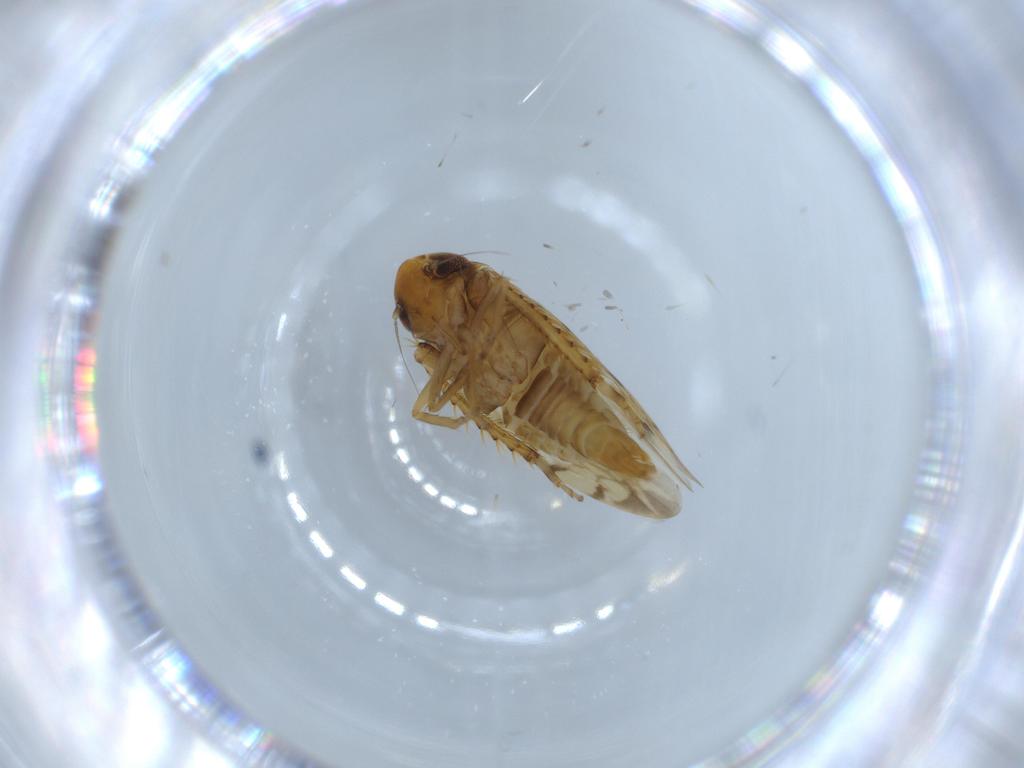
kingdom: Animalia
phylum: Arthropoda
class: Insecta
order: Hemiptera
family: Cicadellidae
